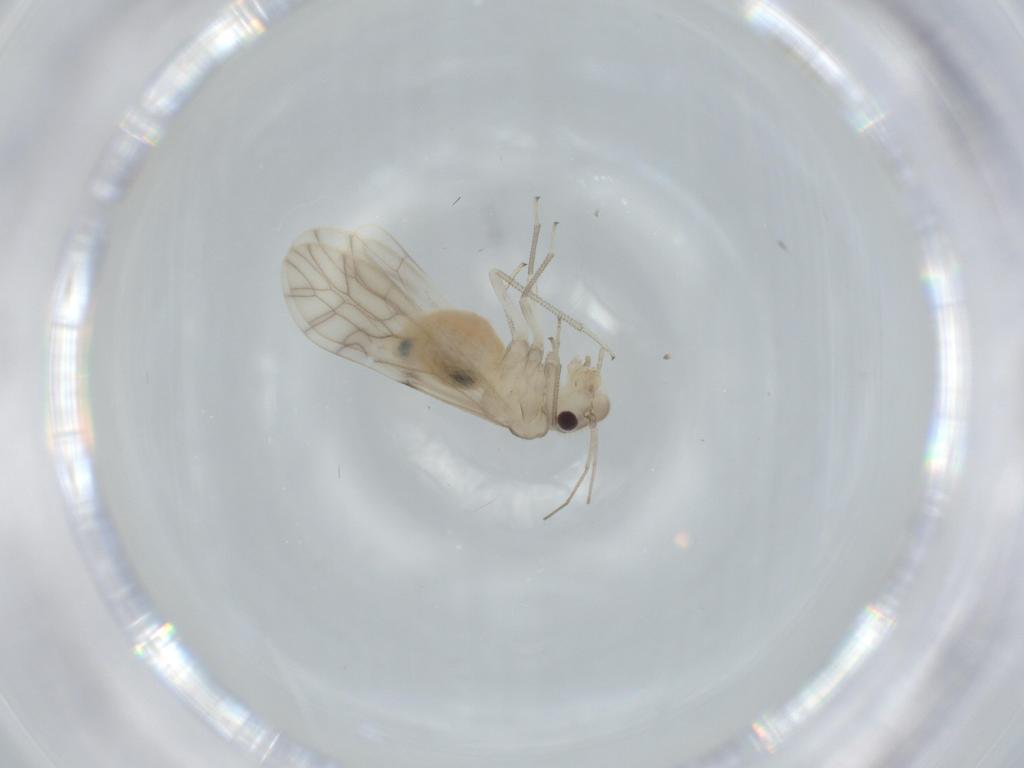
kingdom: Animalia
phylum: Arthropoda
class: Insecta
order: Psocodea
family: Caeciliusidae
